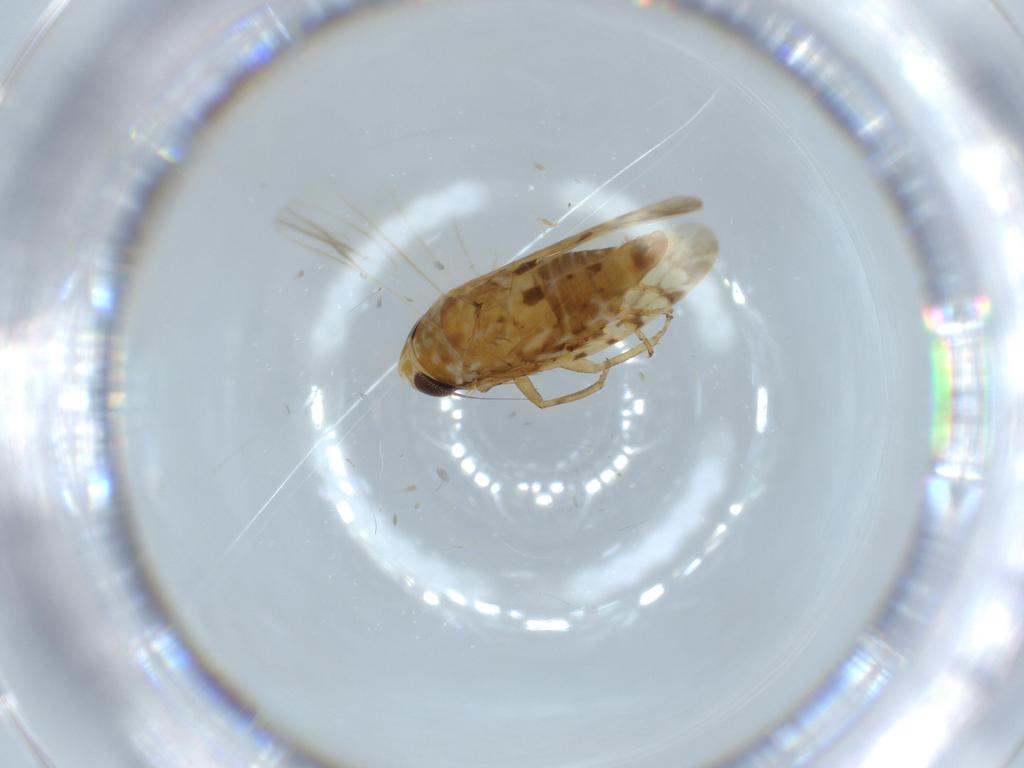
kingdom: Animalia
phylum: Arthropoda
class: Insecta
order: Hemiptera
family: Cicadellidae
